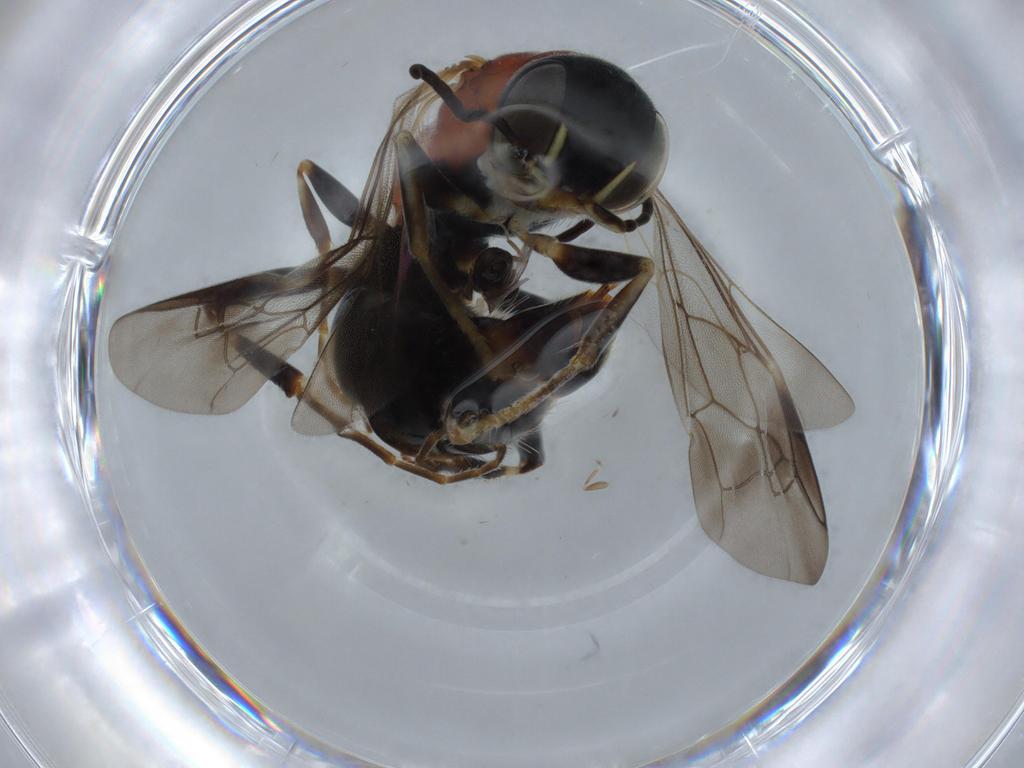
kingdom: Animalia
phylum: Arthropoda
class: Insecta
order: Hymenoptera
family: Bembicidae
